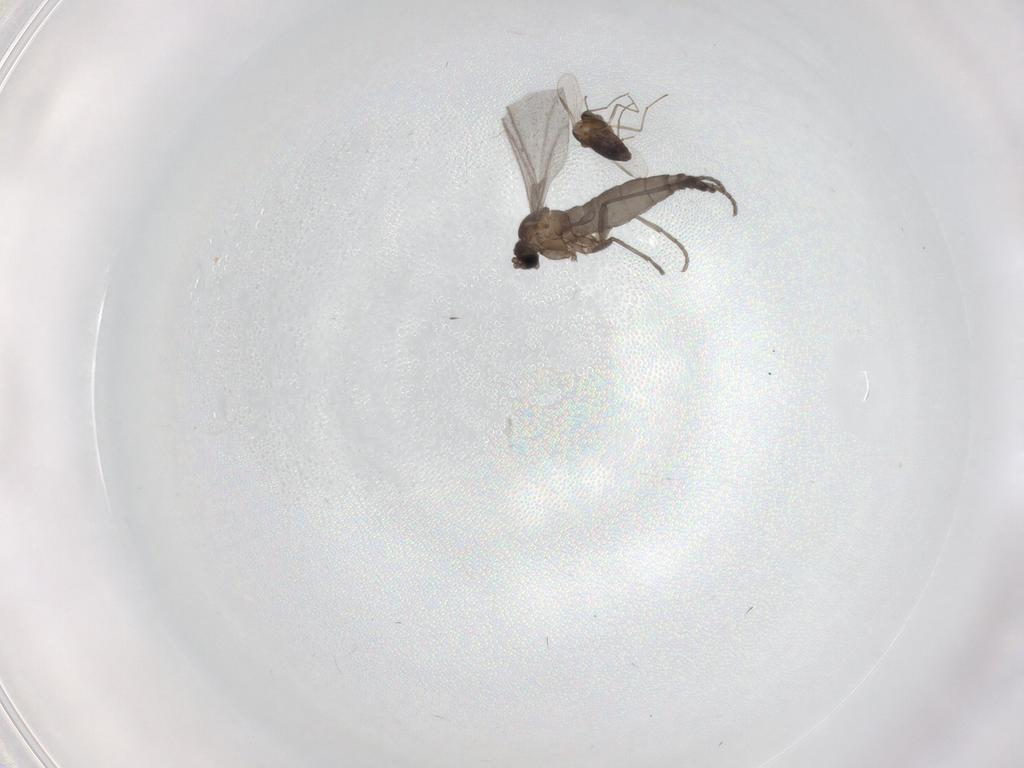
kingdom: Animalia
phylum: Arthropoda
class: Insecta
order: Diptera
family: Sciaridae
